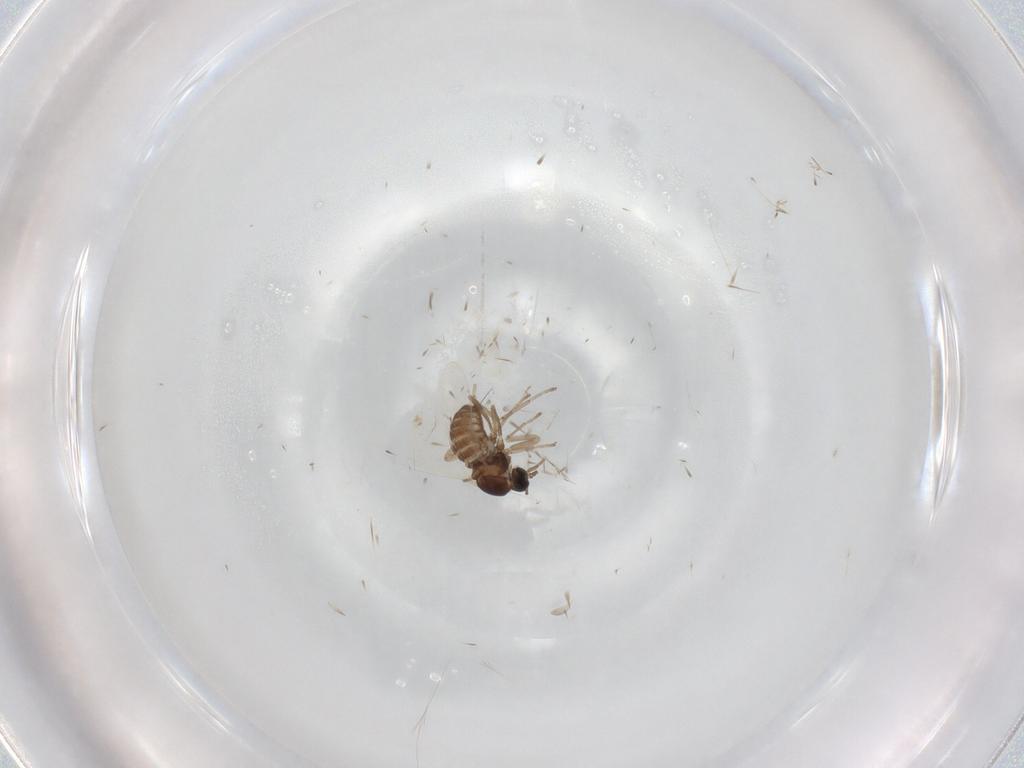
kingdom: Animalia
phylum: Arthropoda
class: Insecta
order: Diptera
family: Cecidomyiidae
